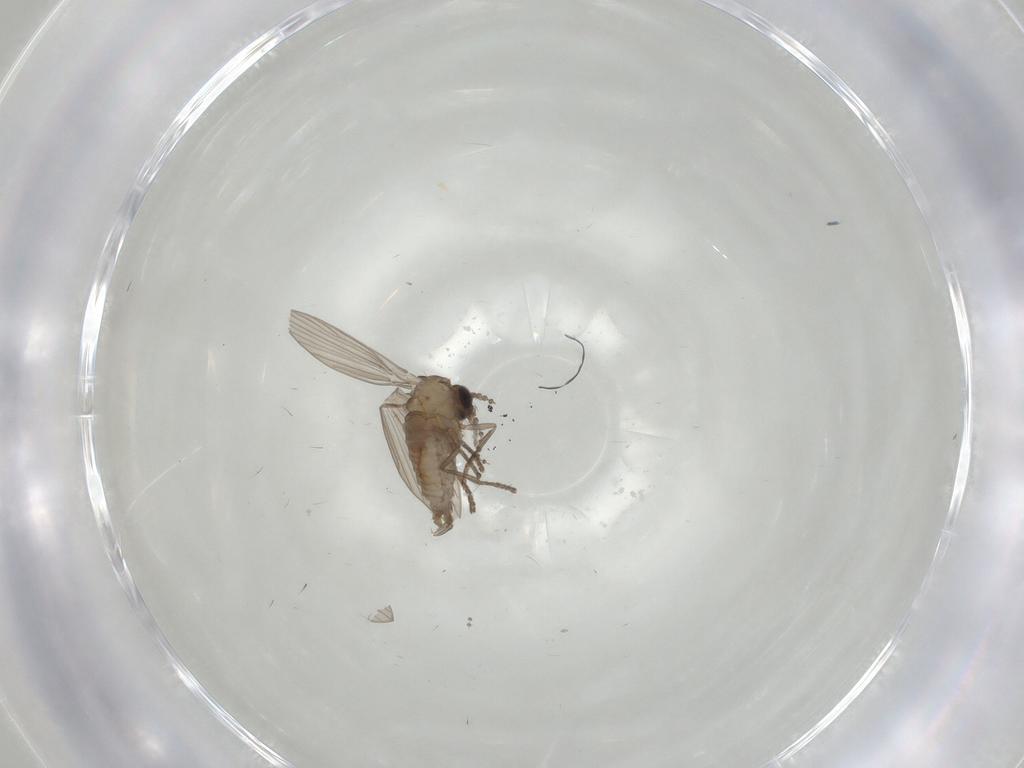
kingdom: Animalia
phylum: Arthropoda
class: Insecta
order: Diptera
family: Psychodidae
